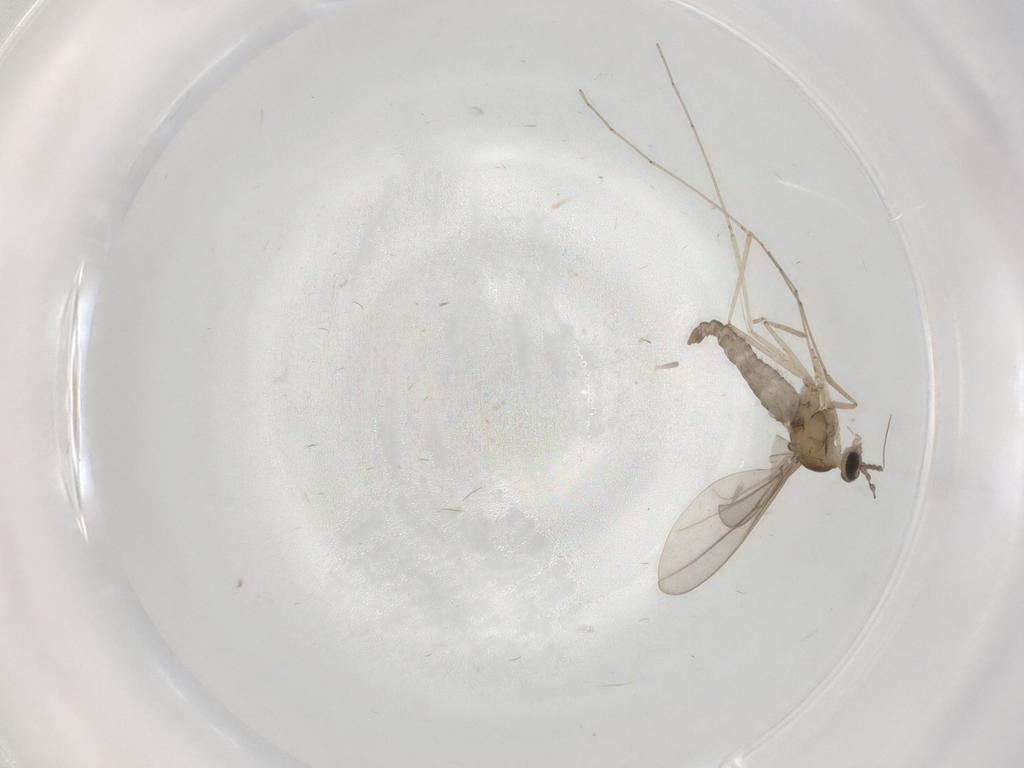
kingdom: Animalia
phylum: Arthropoda
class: Insecta
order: Diptera
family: Cecidomyiidae
